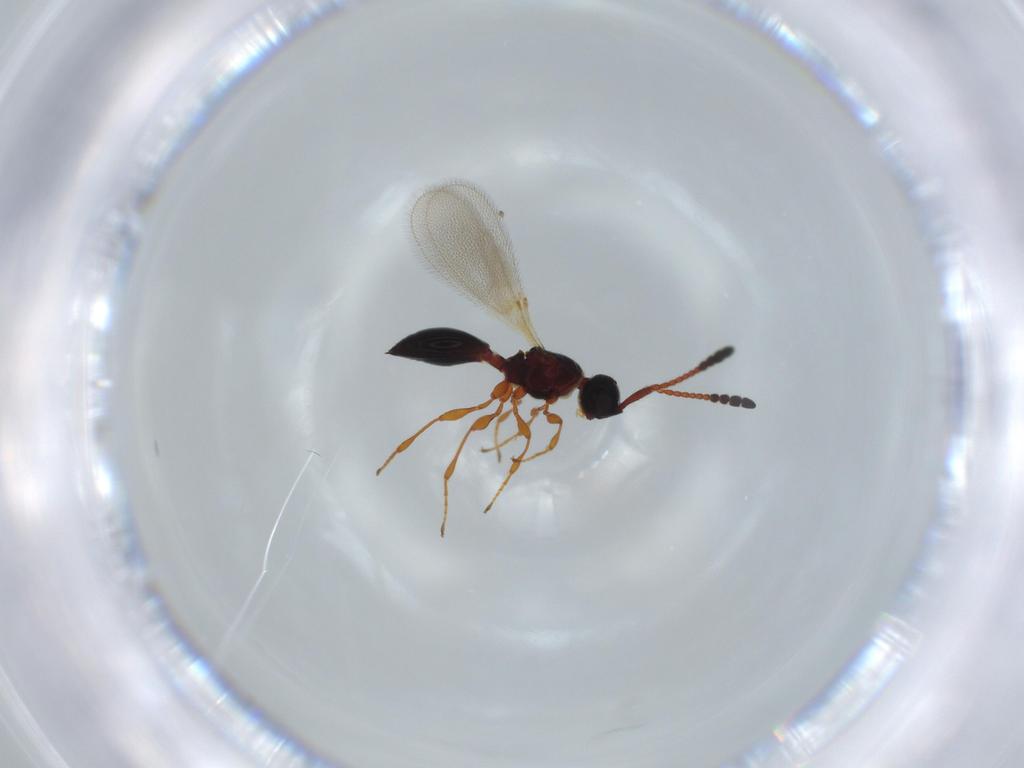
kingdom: Animalia
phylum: Arthropoda
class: Insecta
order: Hymenoptera
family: Diapriidae
